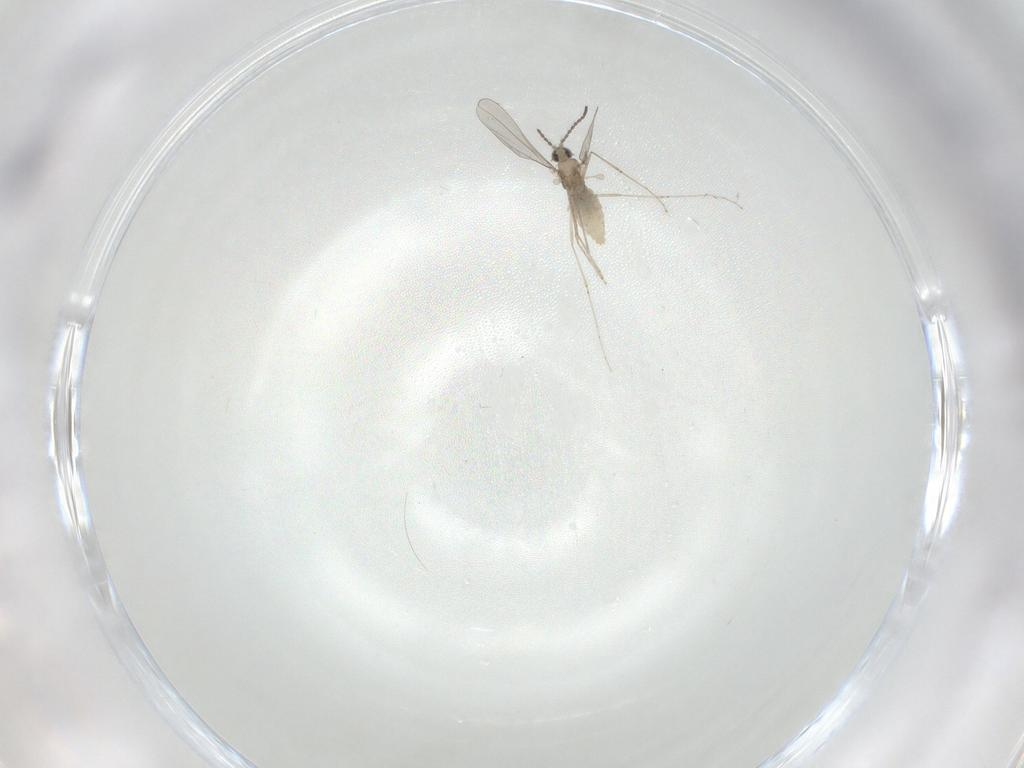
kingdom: Animalia
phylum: Arthropoda
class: Insecta
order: Diptera
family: Cecidomyiidae
